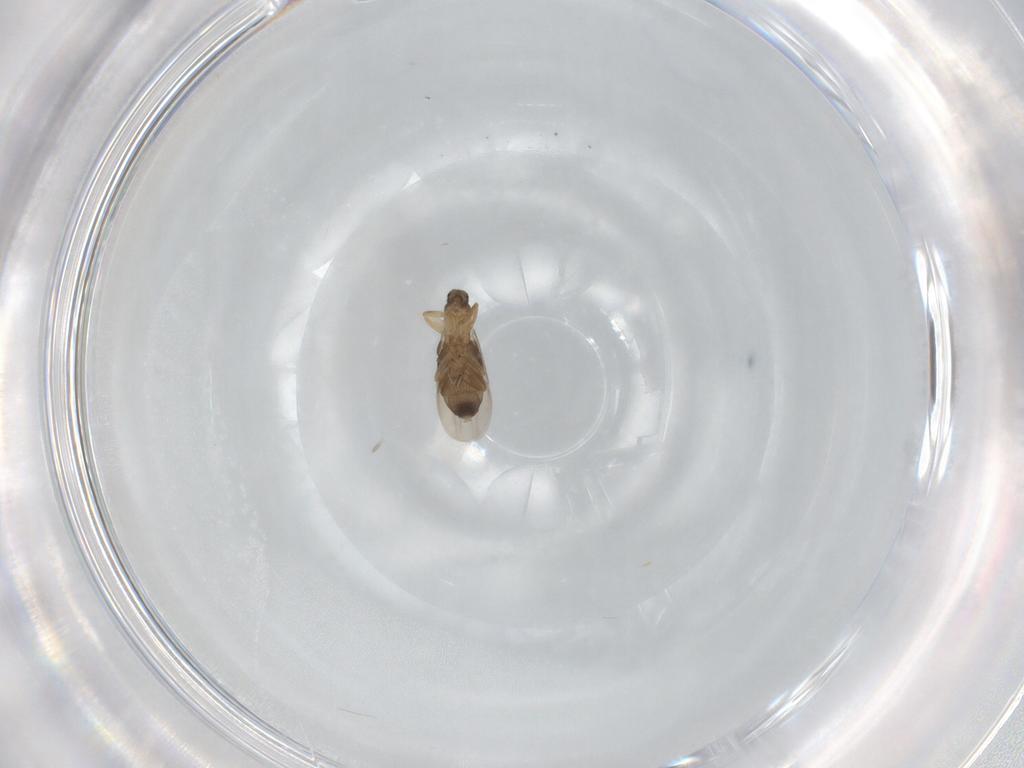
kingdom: Animalia
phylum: Arthropoda
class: Insecta
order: Diptera
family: Phoridae
